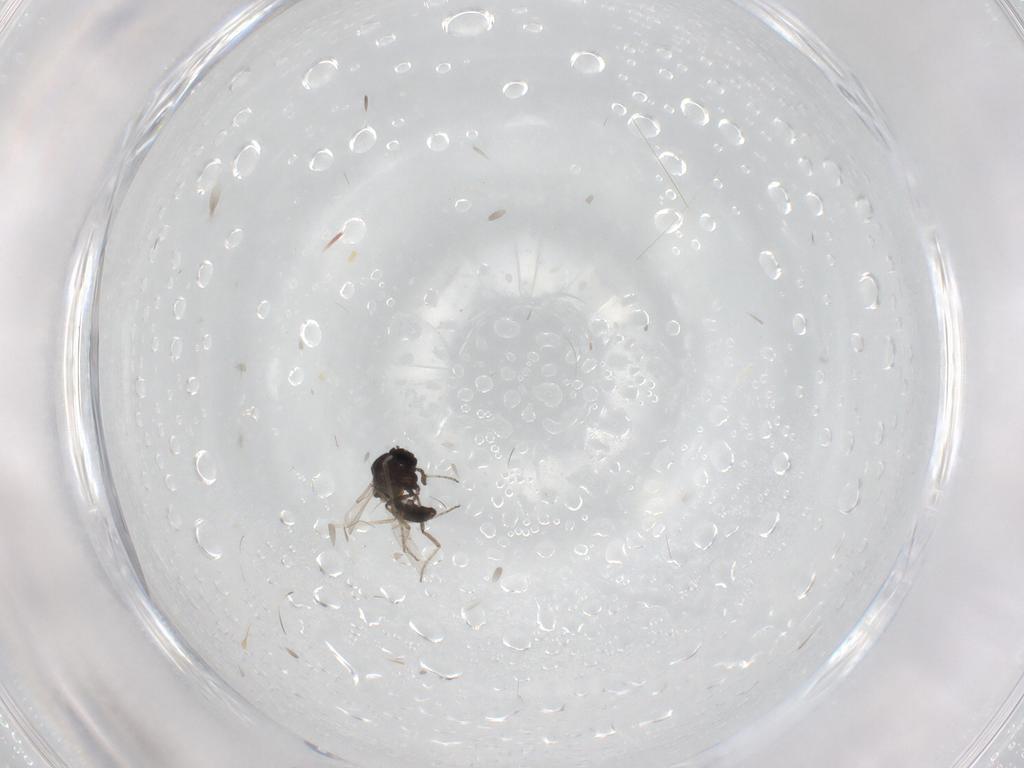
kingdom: Animalia
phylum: Arthropoda
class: Insecta
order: Diptera
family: Cecidomyiidae
